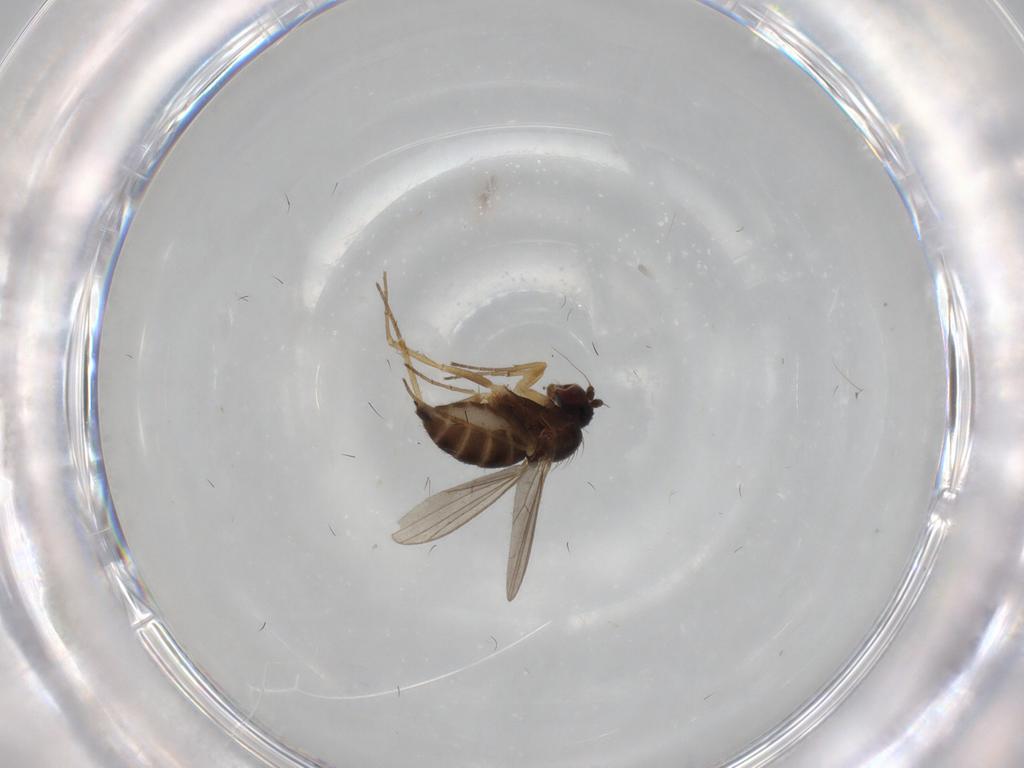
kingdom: Animalia
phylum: Arthropoda
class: Insecta
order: Diptera
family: Dolichopodidae
